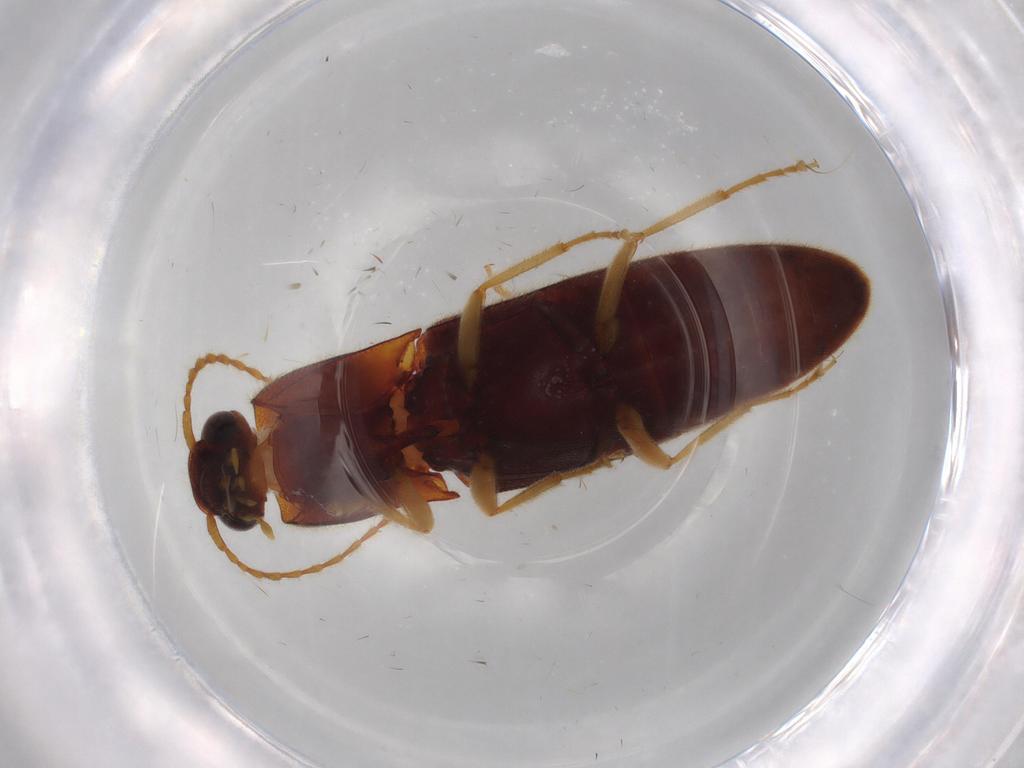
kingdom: Animalia
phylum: Arthropoda
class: Insecta
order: Coleoptera
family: Elateridae
